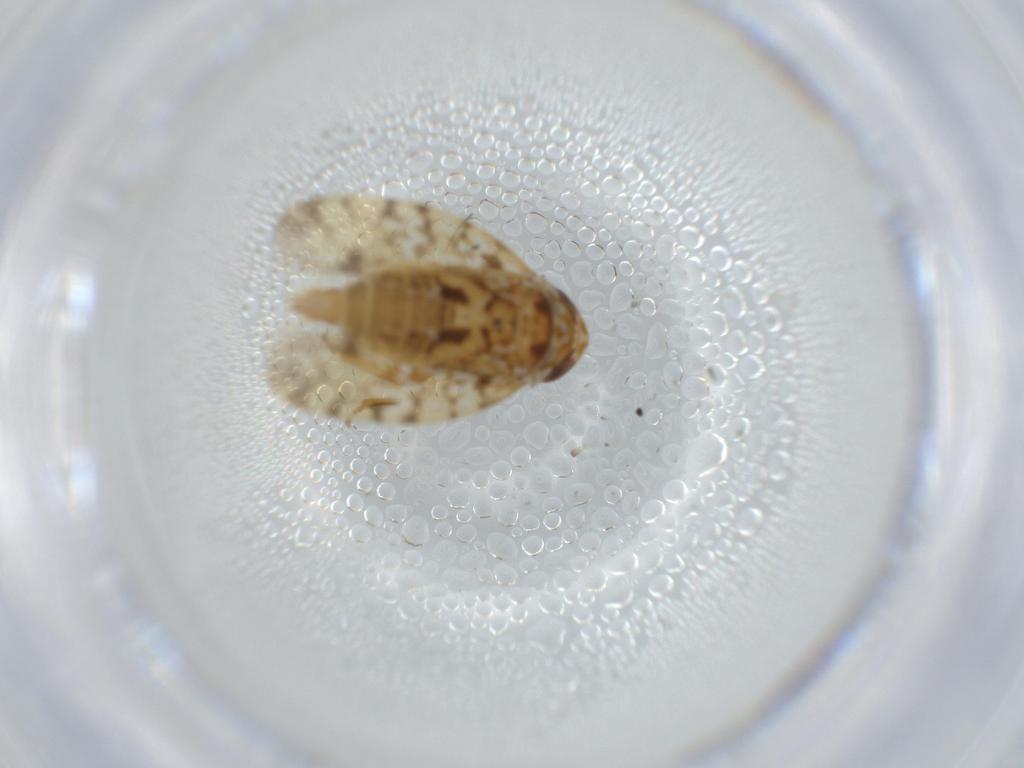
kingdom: Animalia
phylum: Arthropoda
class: Insecta
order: Hemiptera
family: Cicadellidae
